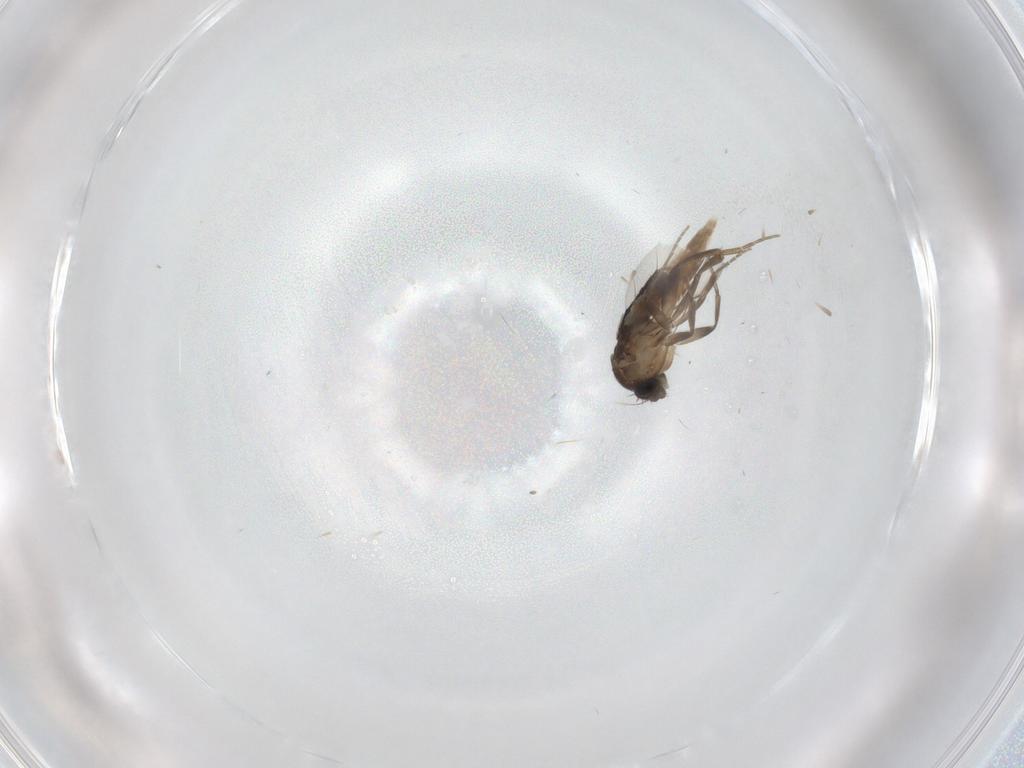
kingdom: Animalia
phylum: Arthropoda
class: Insecta
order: Diptera
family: Phoridae
